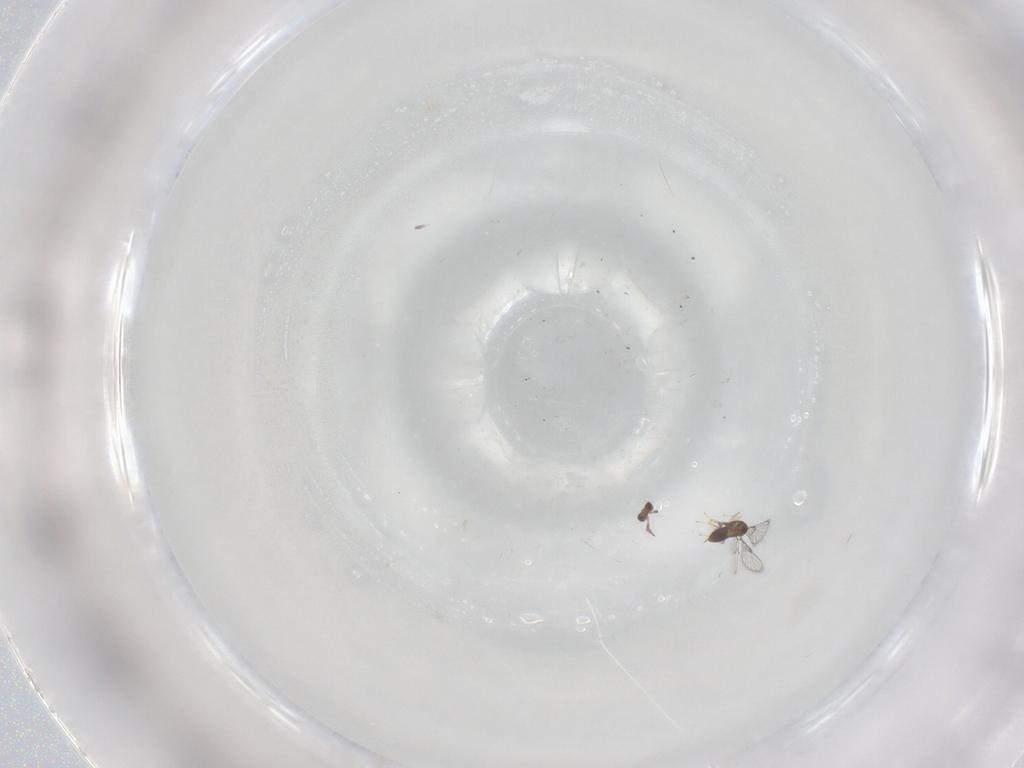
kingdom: Animalia
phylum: Arthropoda
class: Insecta
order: Hymenoptera
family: Trichogrammatidae
